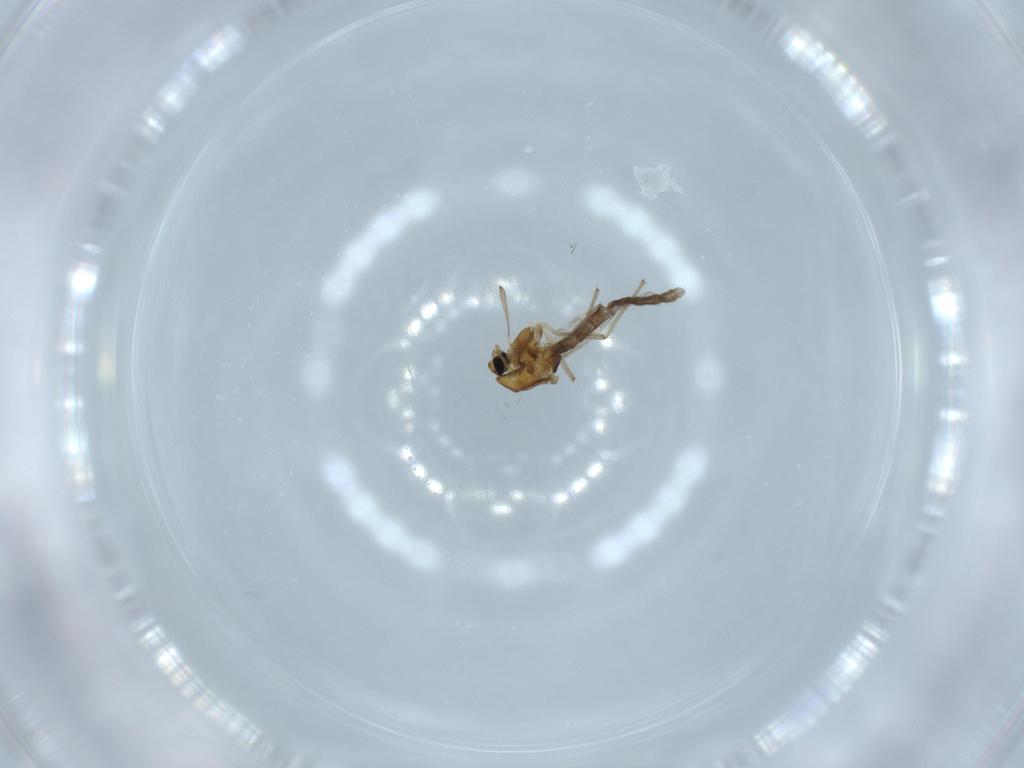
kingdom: Animalia
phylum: Arthropoda
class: Insecta
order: Diptera
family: Chironomidae
